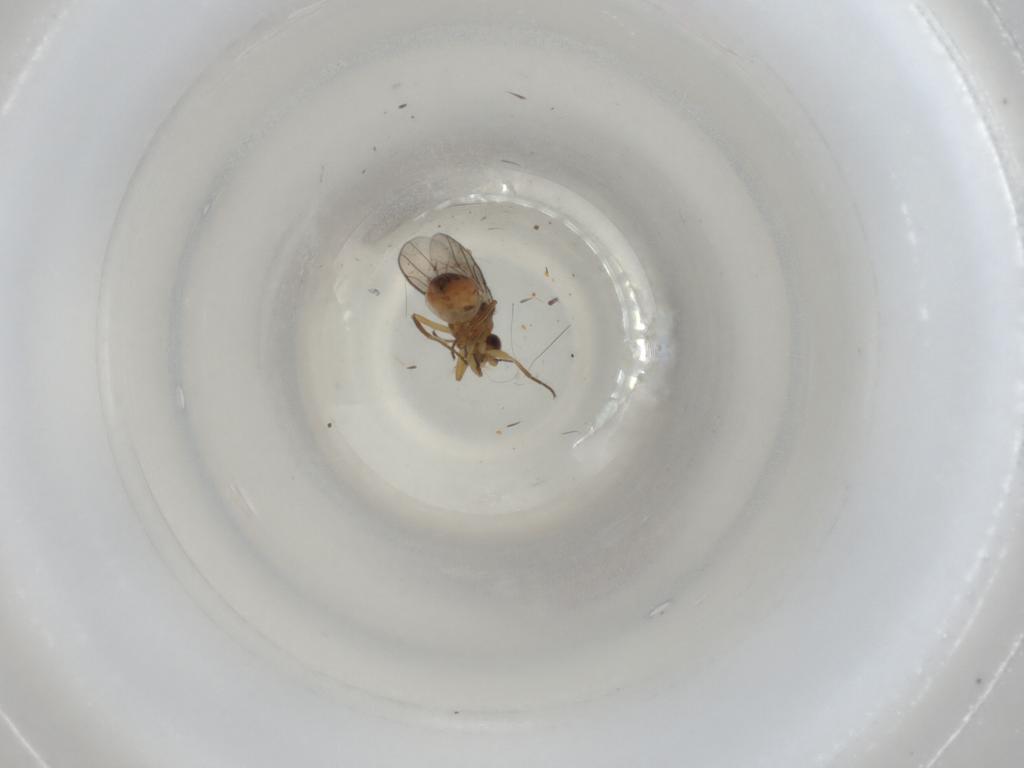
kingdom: Animalia
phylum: Arthropoda
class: Insecta
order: Diptera
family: Chloropidae
